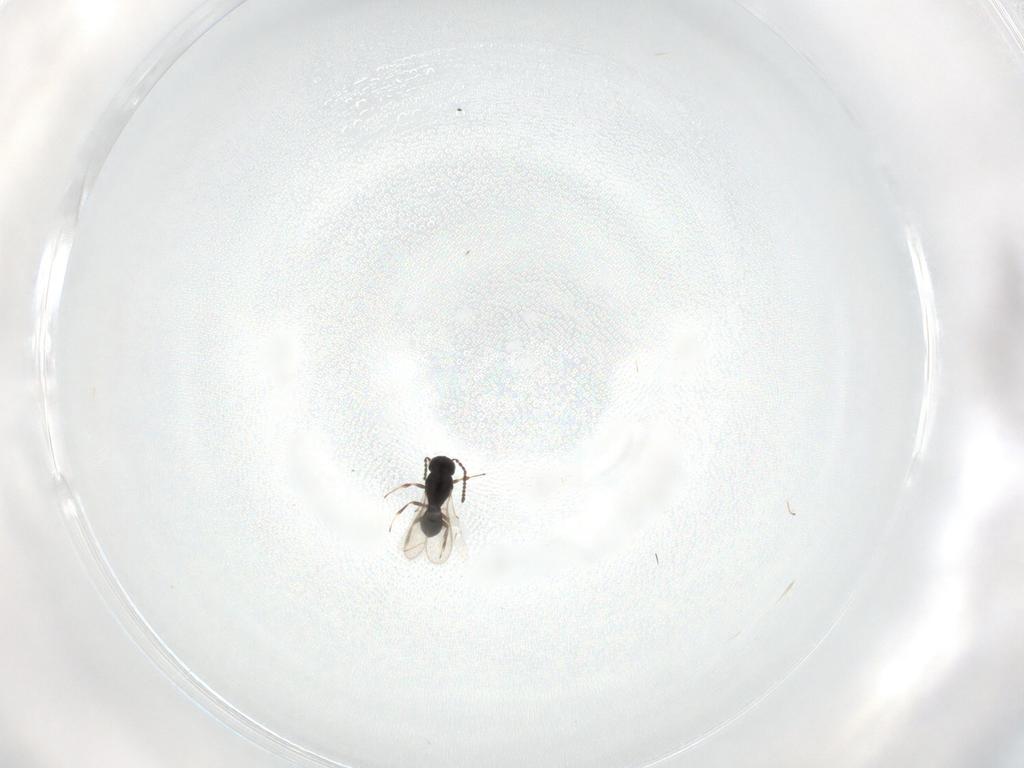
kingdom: Animalia
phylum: Arthropoda
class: Insecta
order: Hymenoptera
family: Scelionidae
